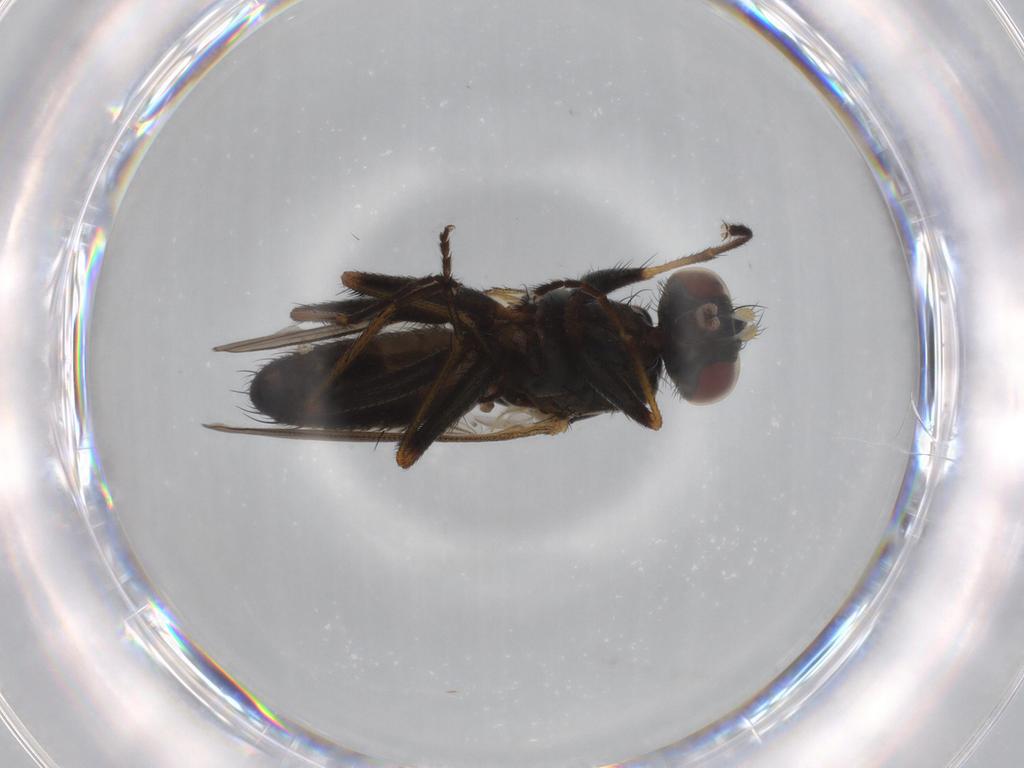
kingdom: Animalia
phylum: Arthropoda
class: Insecta
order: Diptera
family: Muscidae
